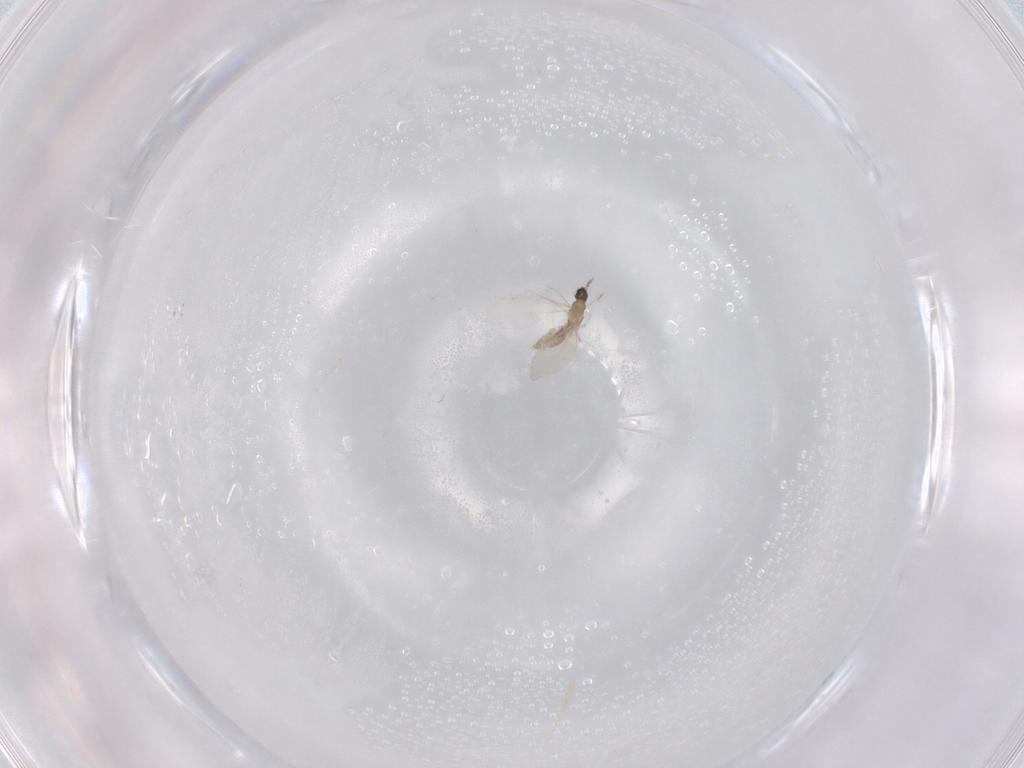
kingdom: Animalia
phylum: Arthropoda
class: Insecta
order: Diptera
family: Cecidomyiidae
